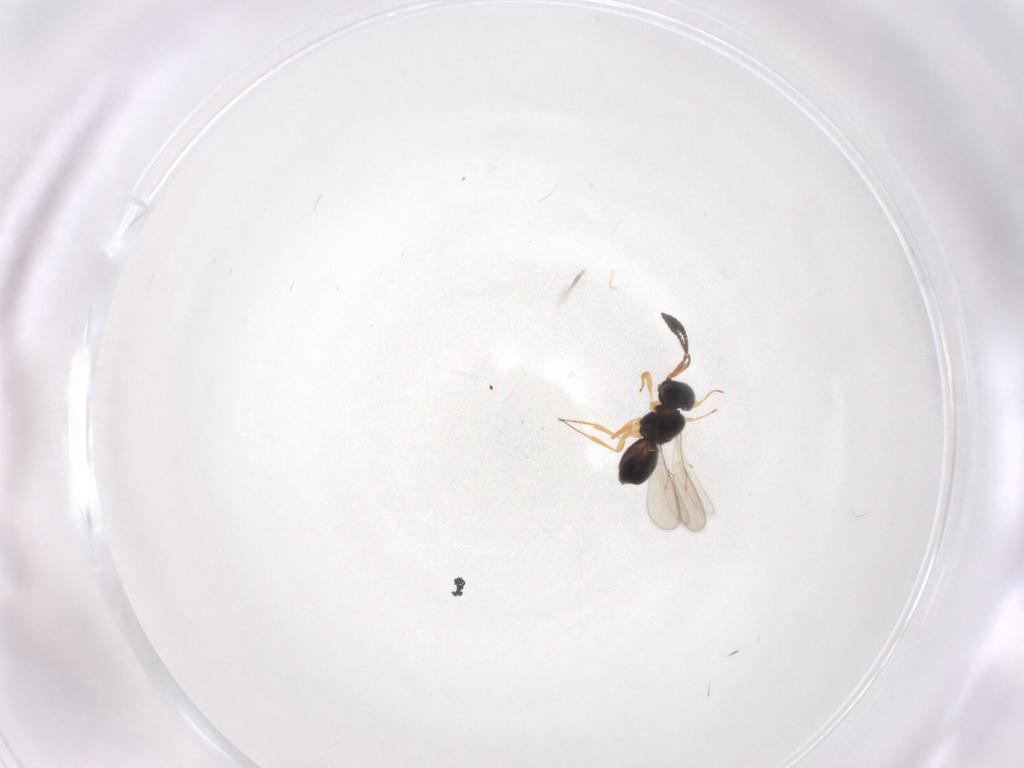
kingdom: Animalia
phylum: Arthropoda
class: Insecta
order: Hymenoptera
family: Scelionidae
